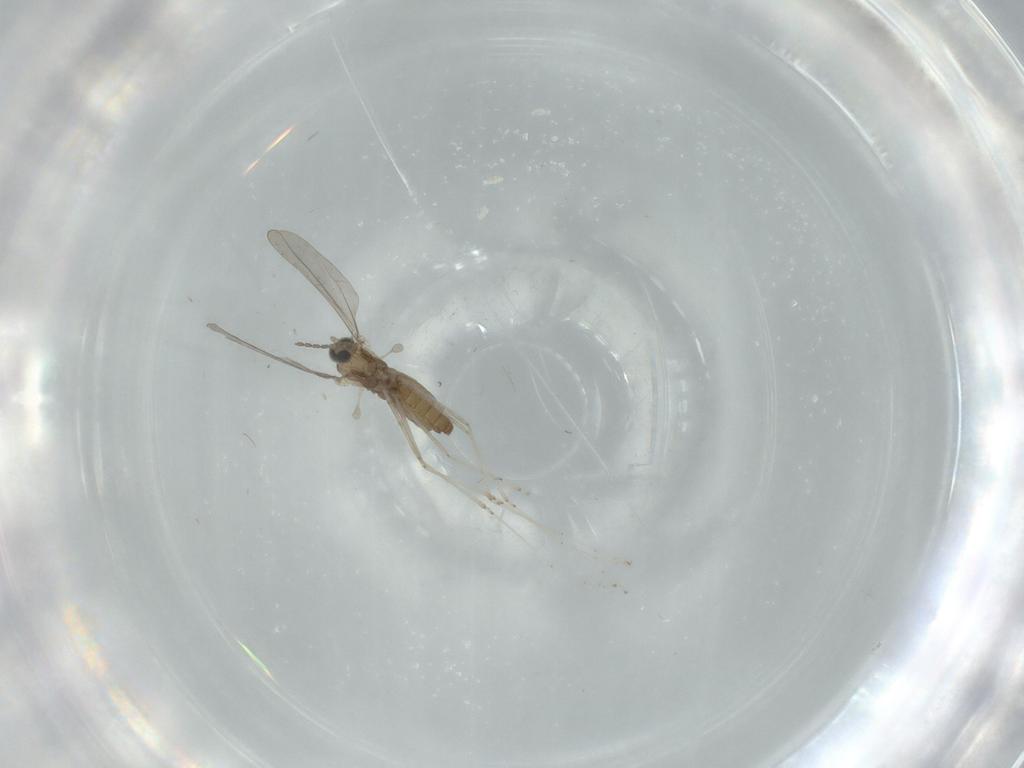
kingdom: Animalia
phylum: Arthropoda
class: Insecta
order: Diptera
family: Cecidomyiidae
